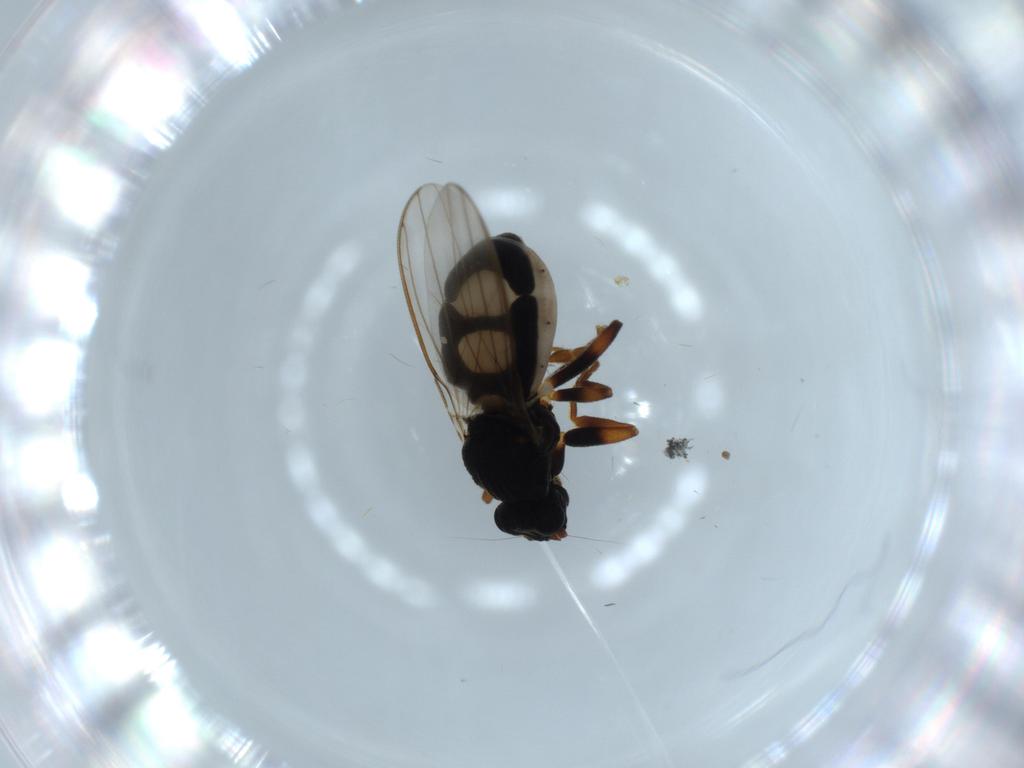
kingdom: Animalia
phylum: Arthropoda
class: Insecta
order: Diptera
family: Sphaeroceridae
